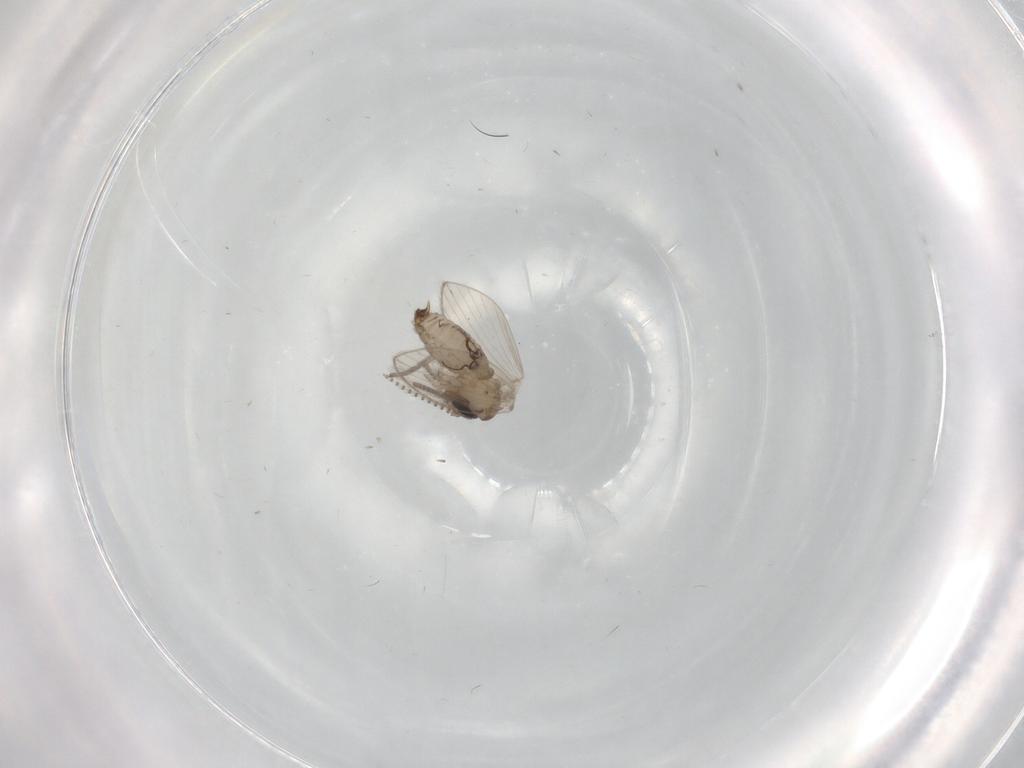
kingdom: Animalia
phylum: Arthropoda
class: Insecta
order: Diptera
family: Psychodidae
